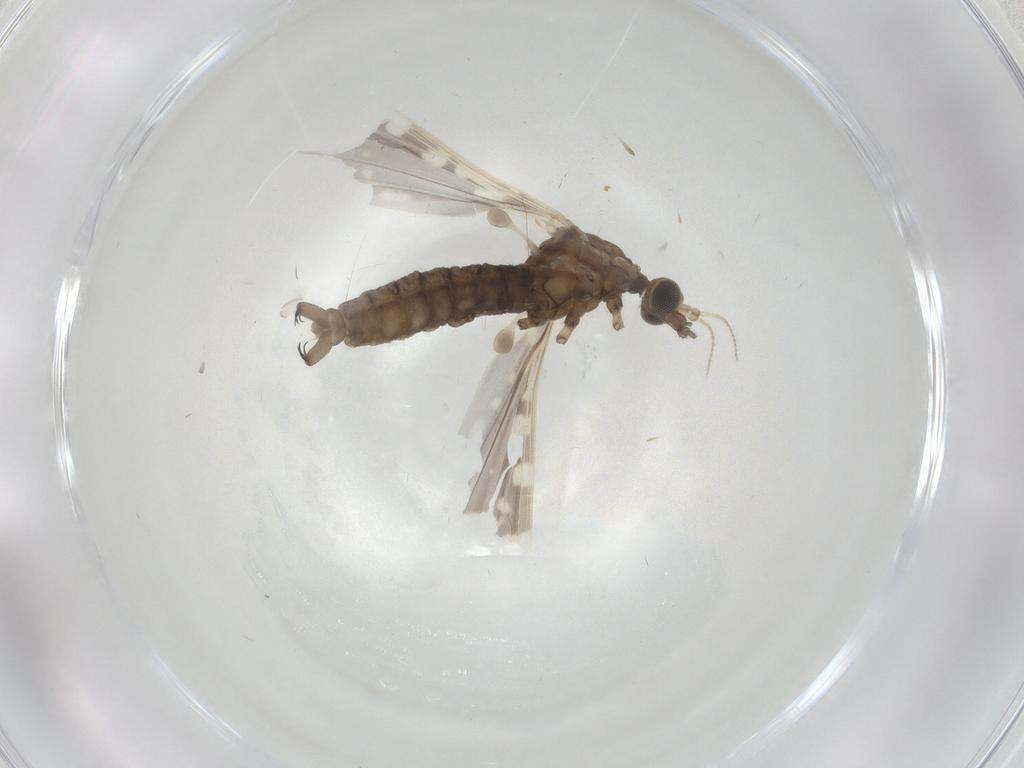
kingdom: Animalia
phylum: Arthropoda
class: Insecta
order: Diptera
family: Limoniidae
